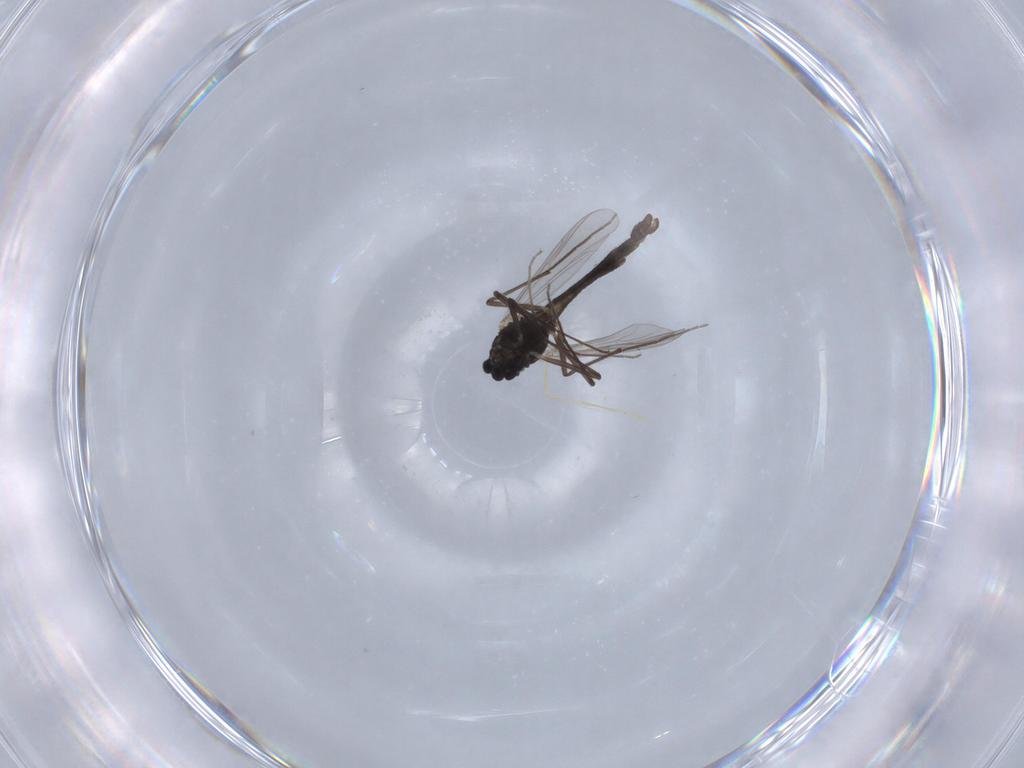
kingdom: Animalia
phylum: Arthropoda
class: Insecta
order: Diptera
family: Chironomidae
